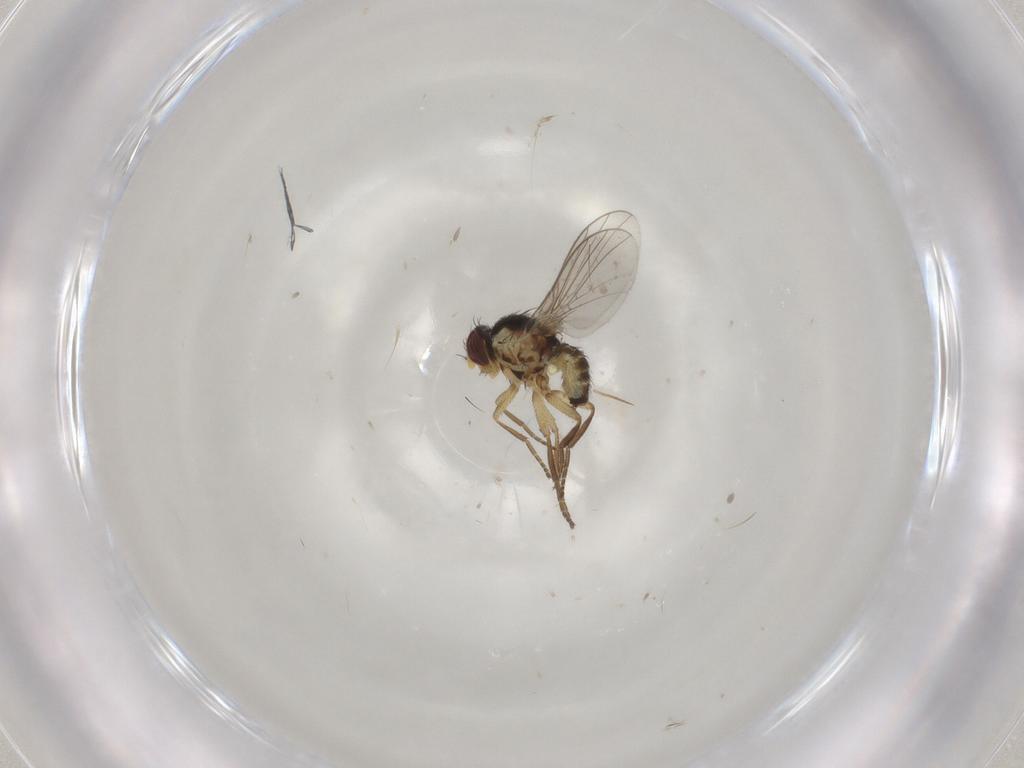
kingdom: Animalia
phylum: Arthropoda
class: Insecta
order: Diptera
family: Agromyzidae
